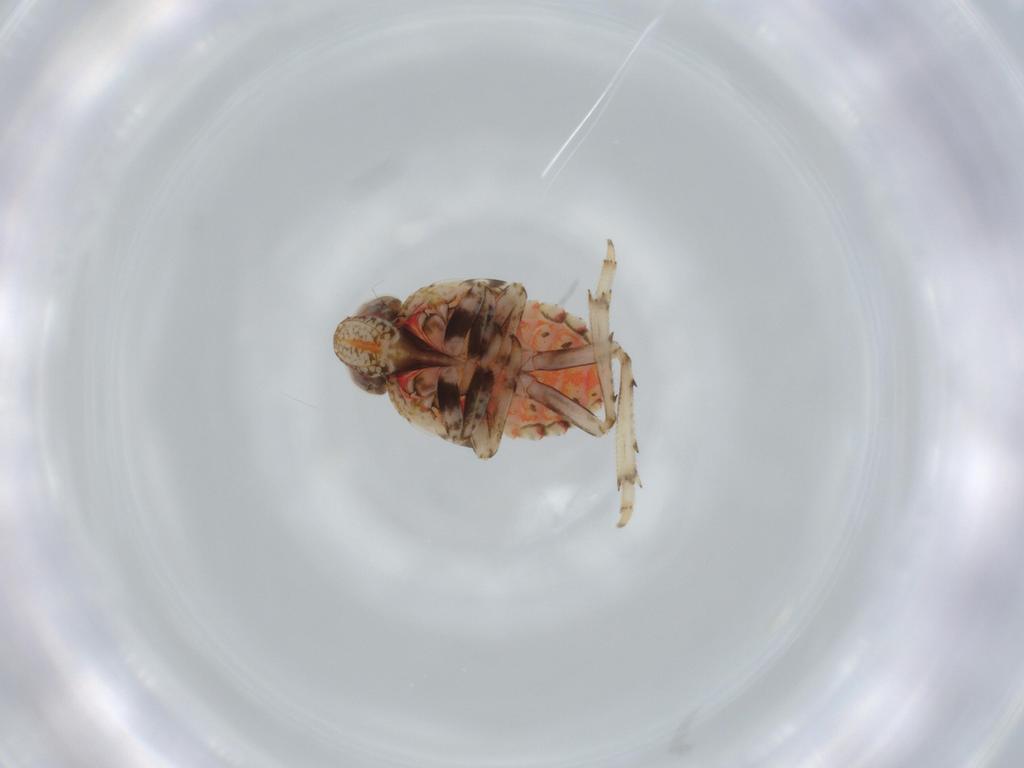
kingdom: Animalia
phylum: Arthropoda
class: Insecta
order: Hemiptera
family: Issidae
